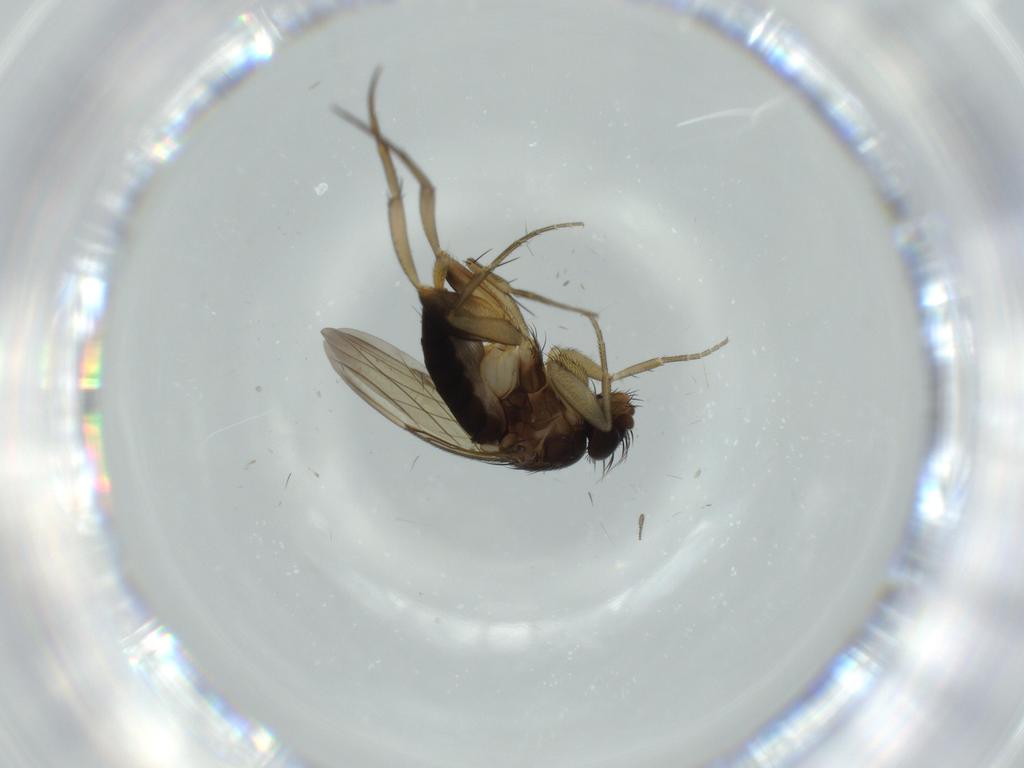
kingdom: Animalia
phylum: Arthropoda
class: Insecta
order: Diptera
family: Phoridae
